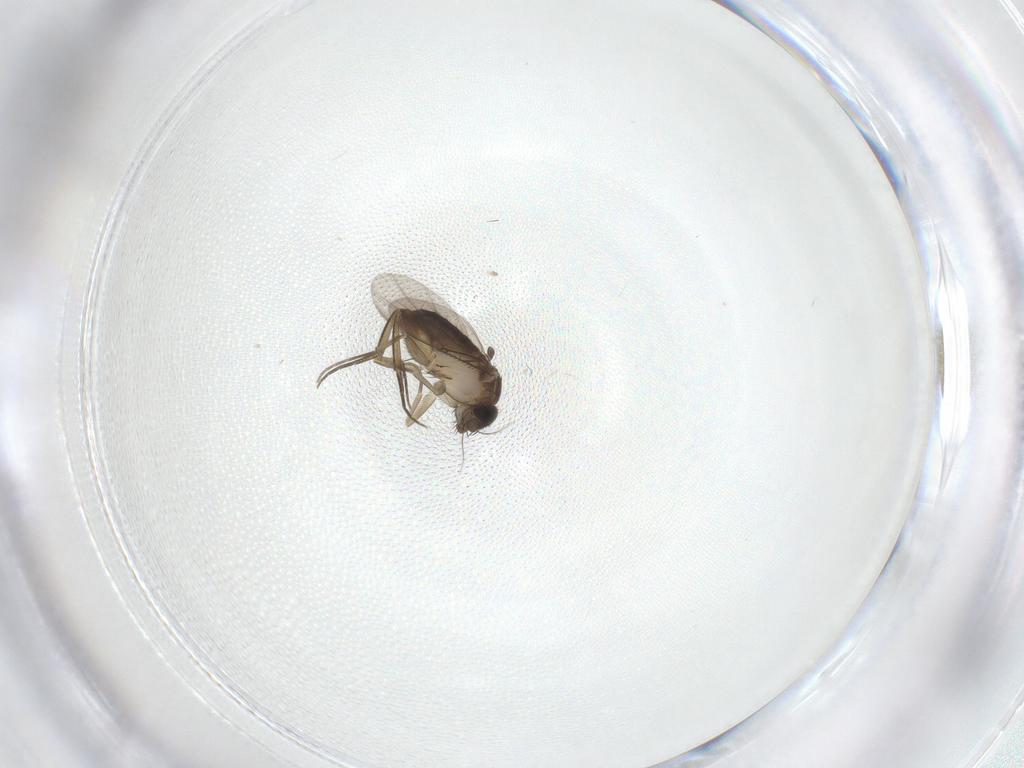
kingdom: Animalia
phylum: Arthropoda
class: Insecta
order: Diptera
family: Phoridae
